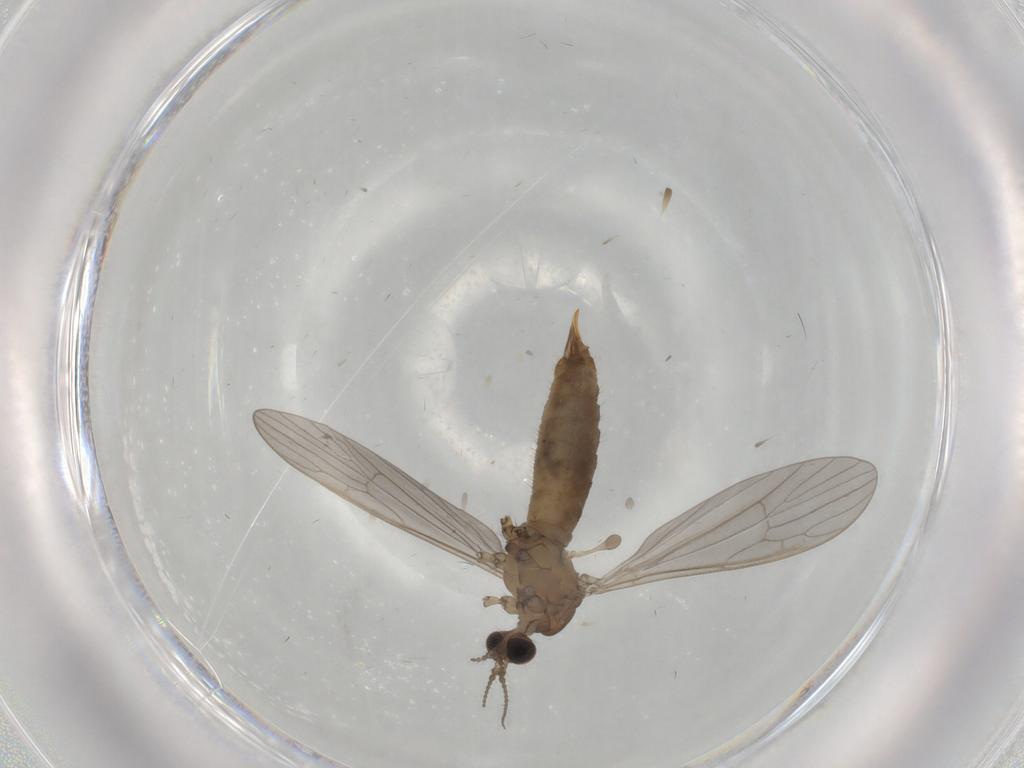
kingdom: Animalia
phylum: Arthropoda
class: Insecta
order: Diptera
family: Limoniidae
